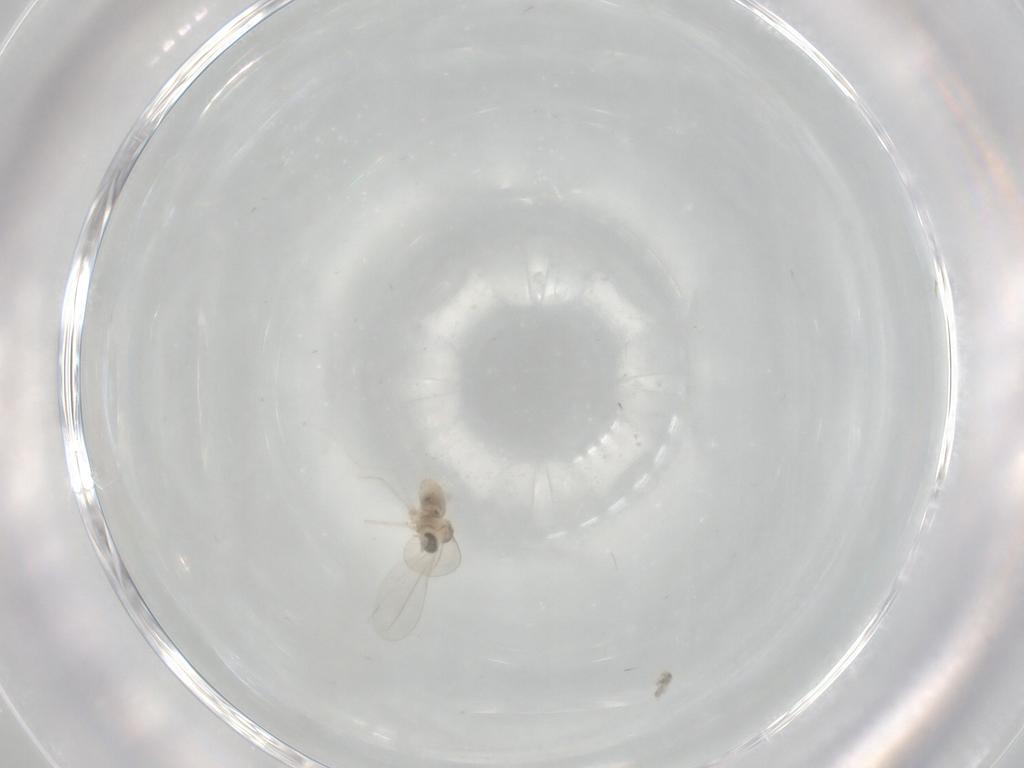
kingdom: Animalia
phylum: Arthropoda
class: Insecta
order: Diptera
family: Cecidomyiidae
